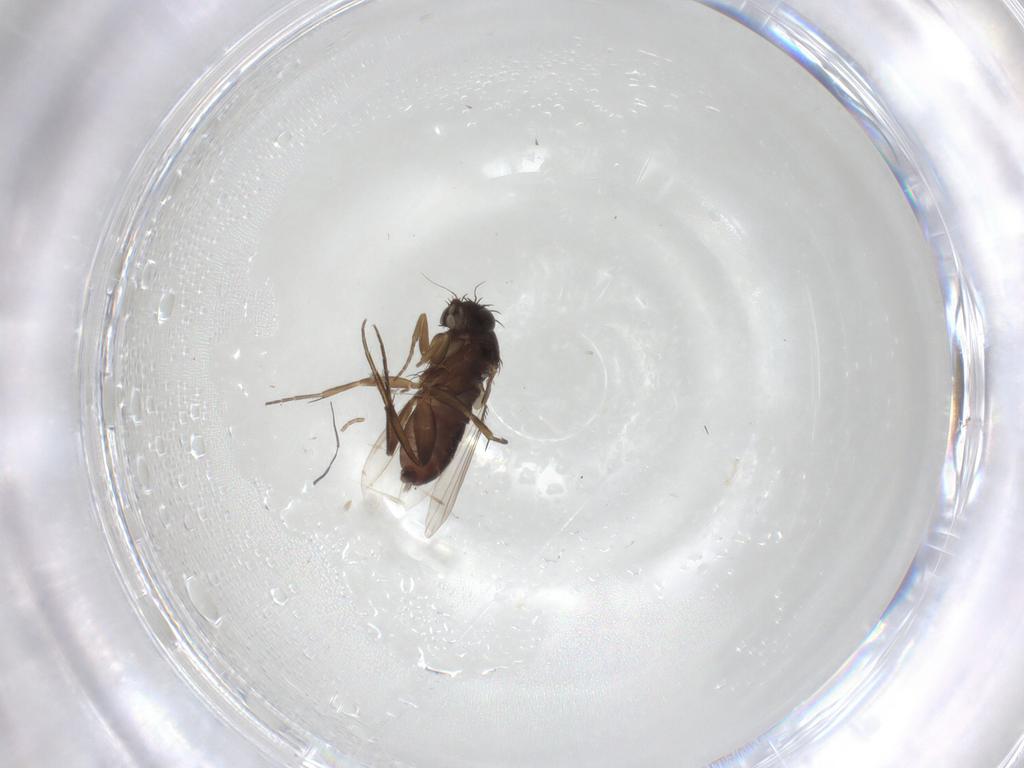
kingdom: Animalia
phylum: Arthropoda
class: Insecta
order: Diptera
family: Phoridae
